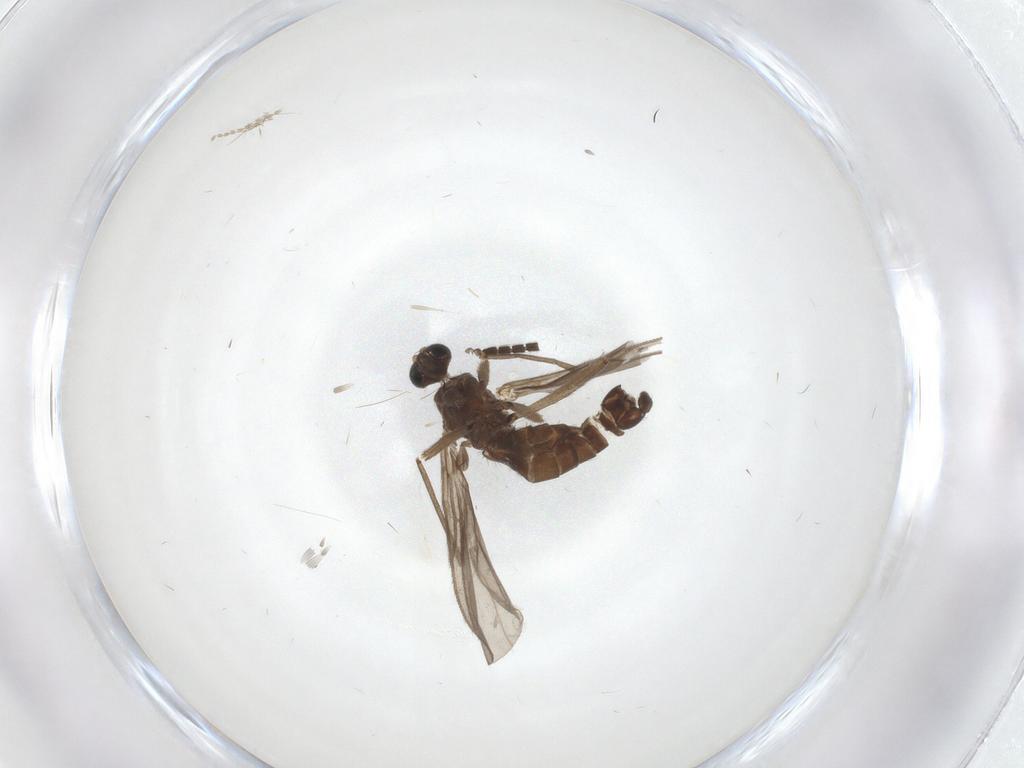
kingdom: Animalia
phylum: Arthropoda
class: Insecta
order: Diptera
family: Sciaridae
